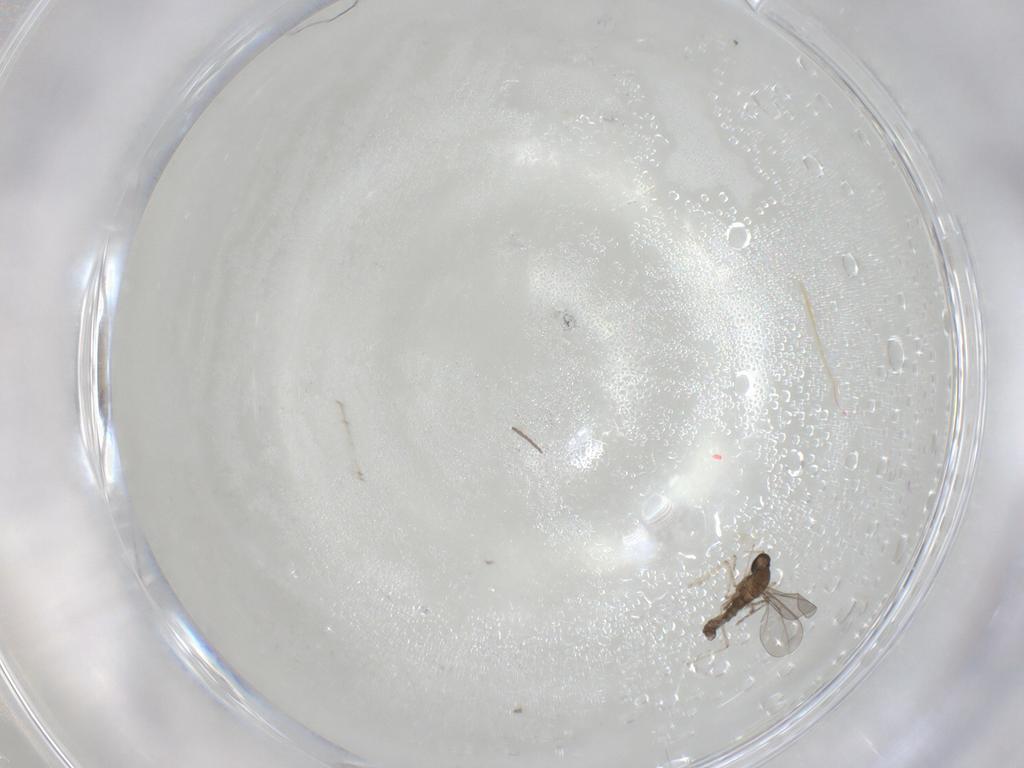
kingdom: Animalia
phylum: Arthropoda
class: Insecta
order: Diptera
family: Cecidomyiidae
